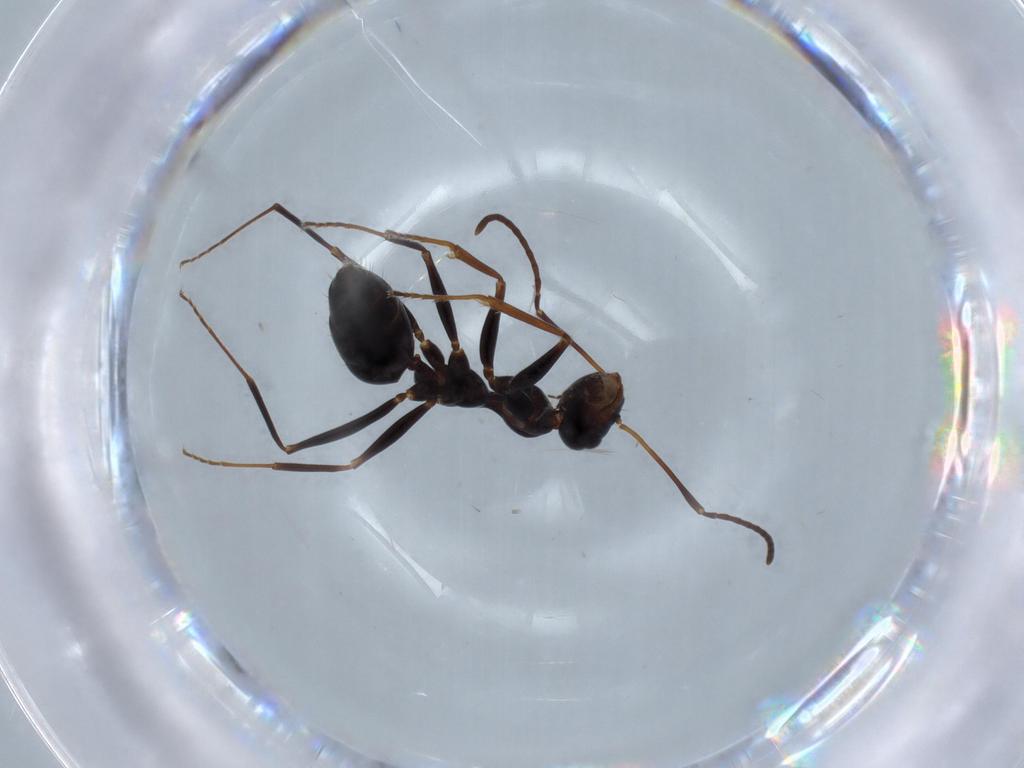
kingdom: Animalia
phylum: Arthropoda
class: Insecta
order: Hymenoptera
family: Formicidae
